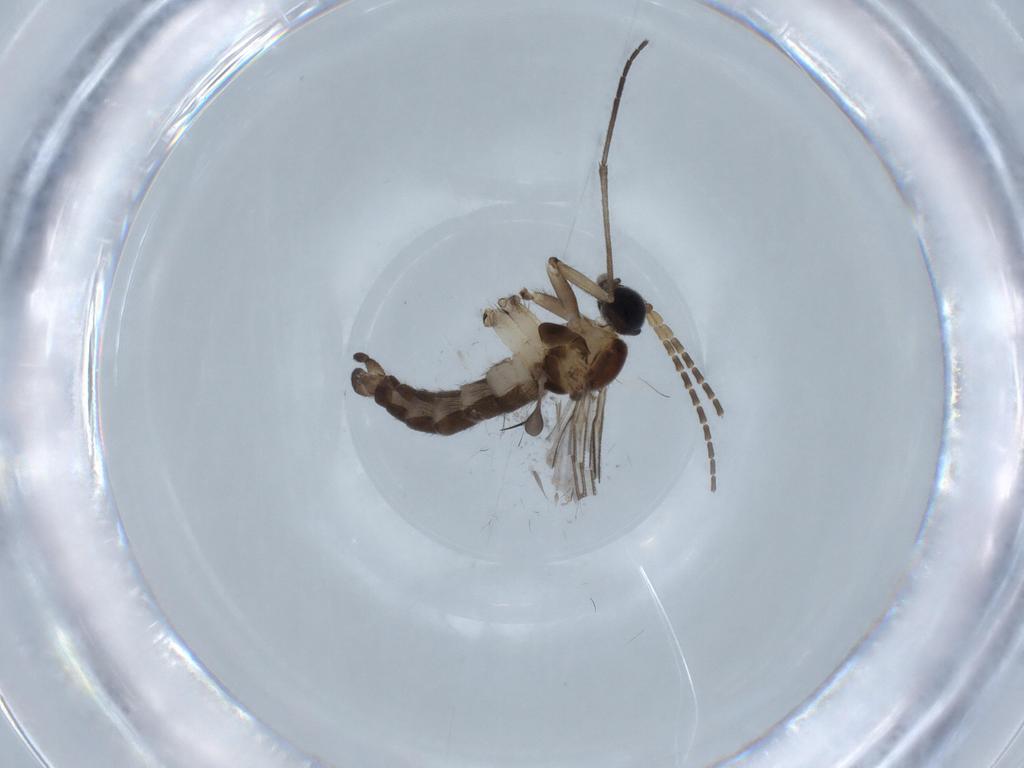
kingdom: Animalia
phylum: Arthropoda
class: Insecta
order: Diptera
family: Sciaridae
